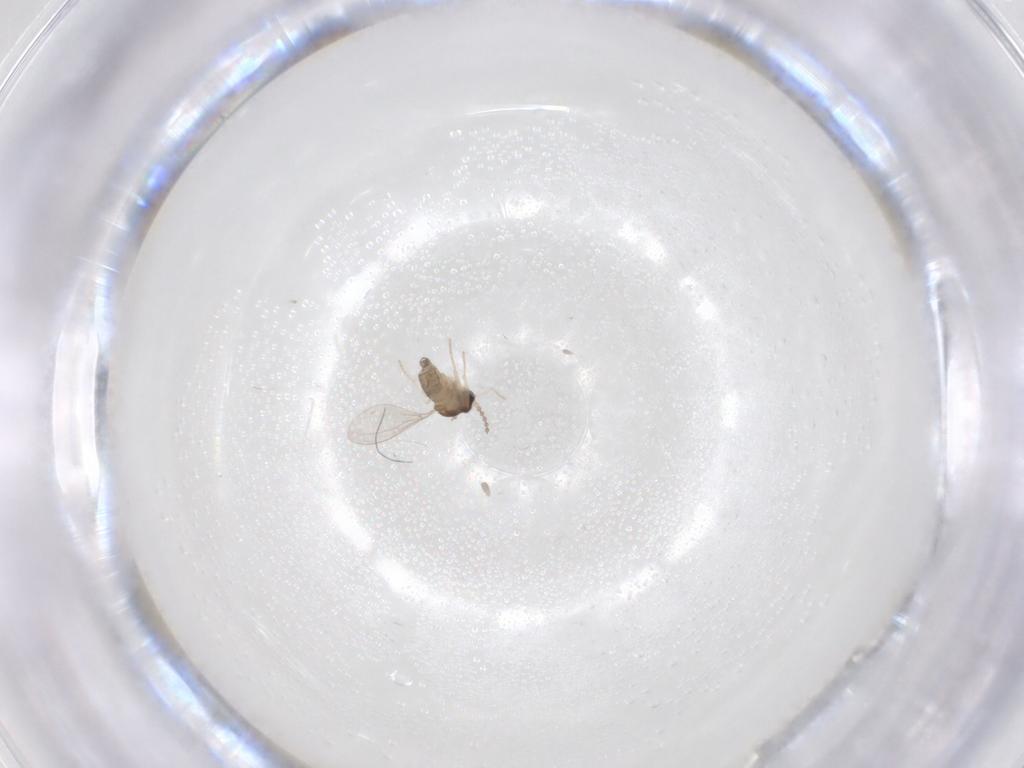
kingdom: Animalia
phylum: Arthropoda
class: Insecta
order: Diptera
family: Cecidomyiidae
